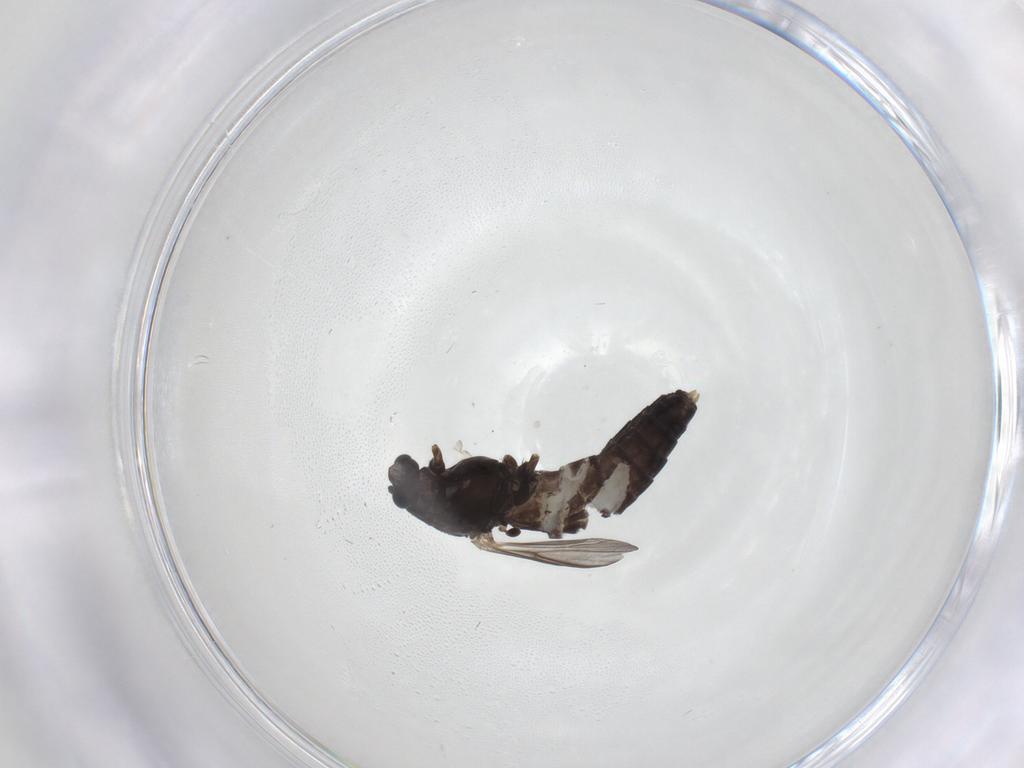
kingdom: Animalia
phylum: Arthropoda
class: Insecta
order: Diptera
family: Chironomidae
